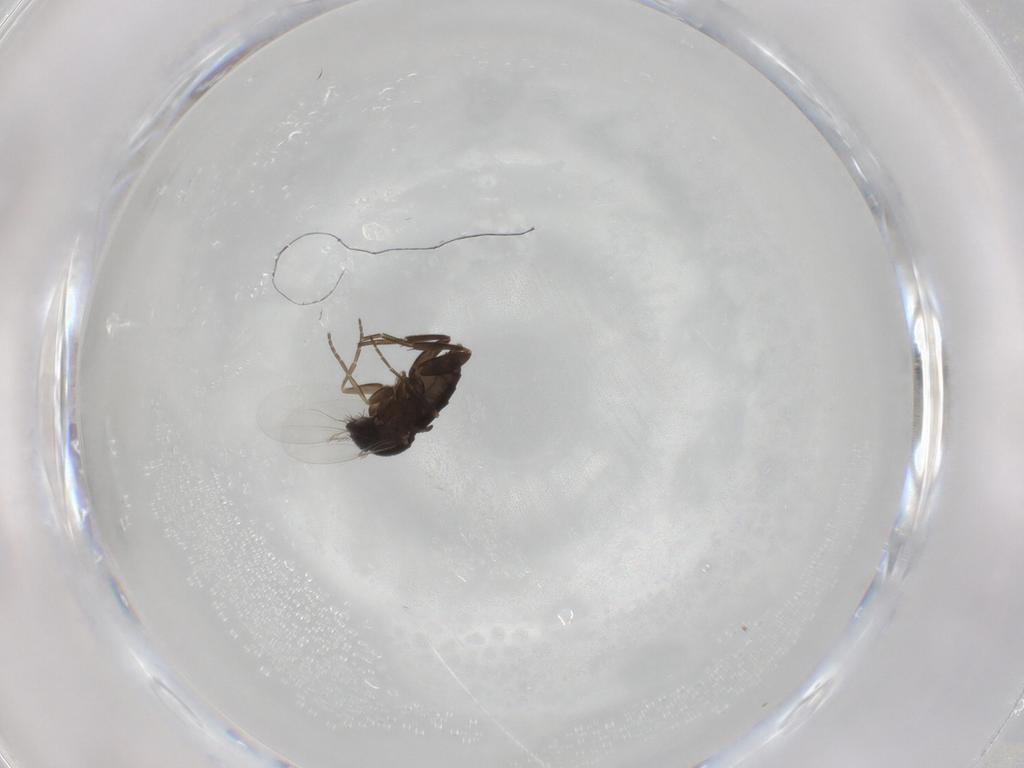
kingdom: Animalia
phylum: Arthropoda
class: Insecta
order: Diptera
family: Phoridae
